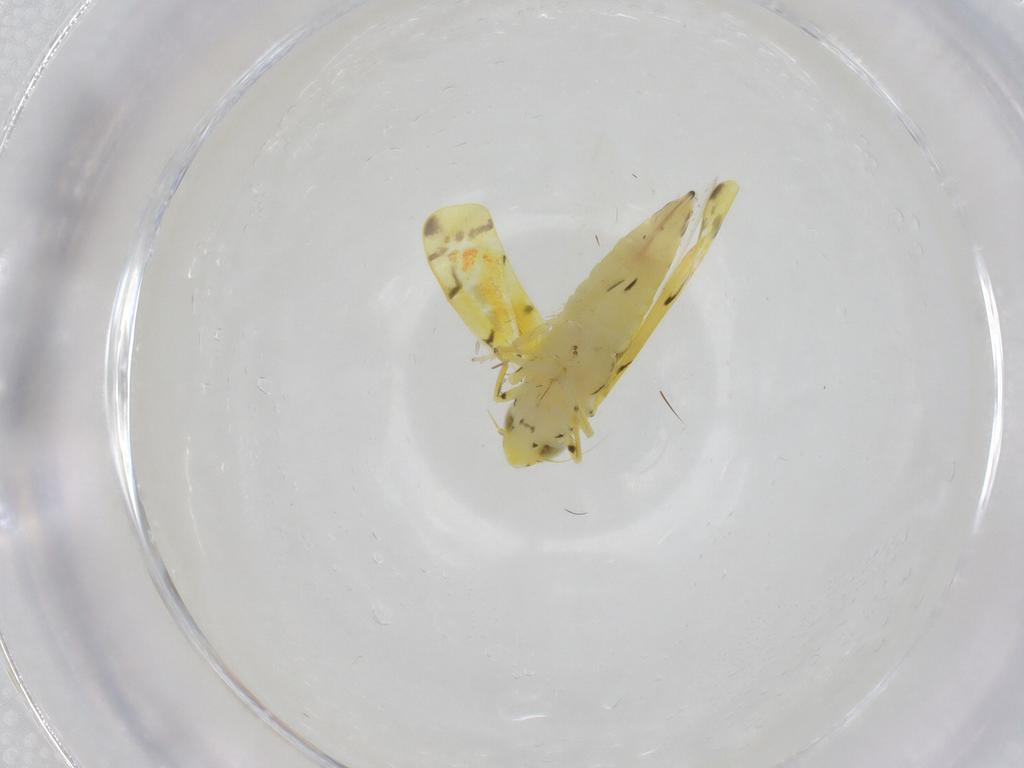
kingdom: Animalia
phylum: Arthropoda
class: Insecta
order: Hemiptera
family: Cicadellidae
